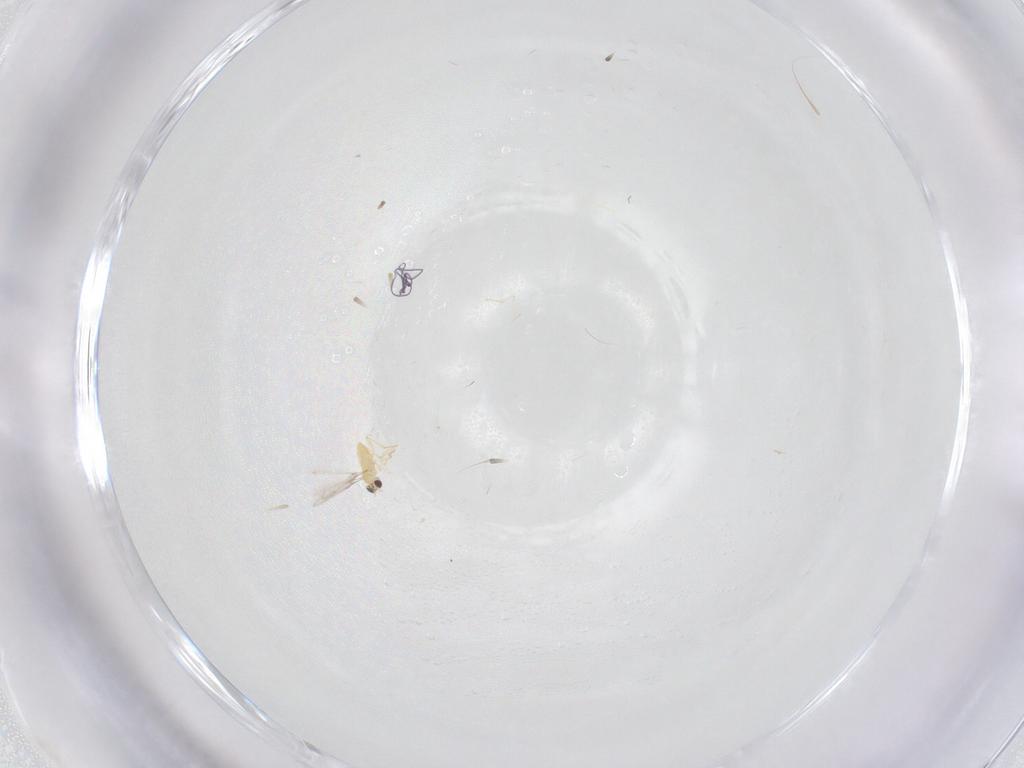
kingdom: Animalia
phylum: Arthropoda
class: Insecta
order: Hymenoptera
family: Mymaridae
